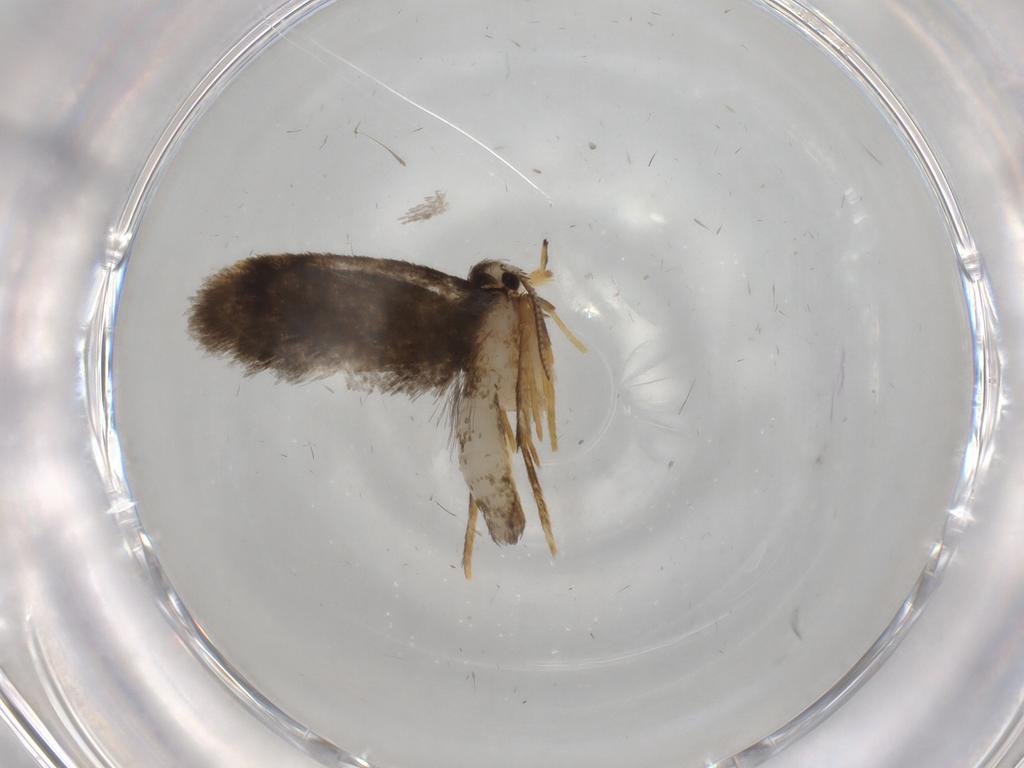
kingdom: Animalia
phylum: Arthropoda
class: Insecta
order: Lepidoptera
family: Psychidae
